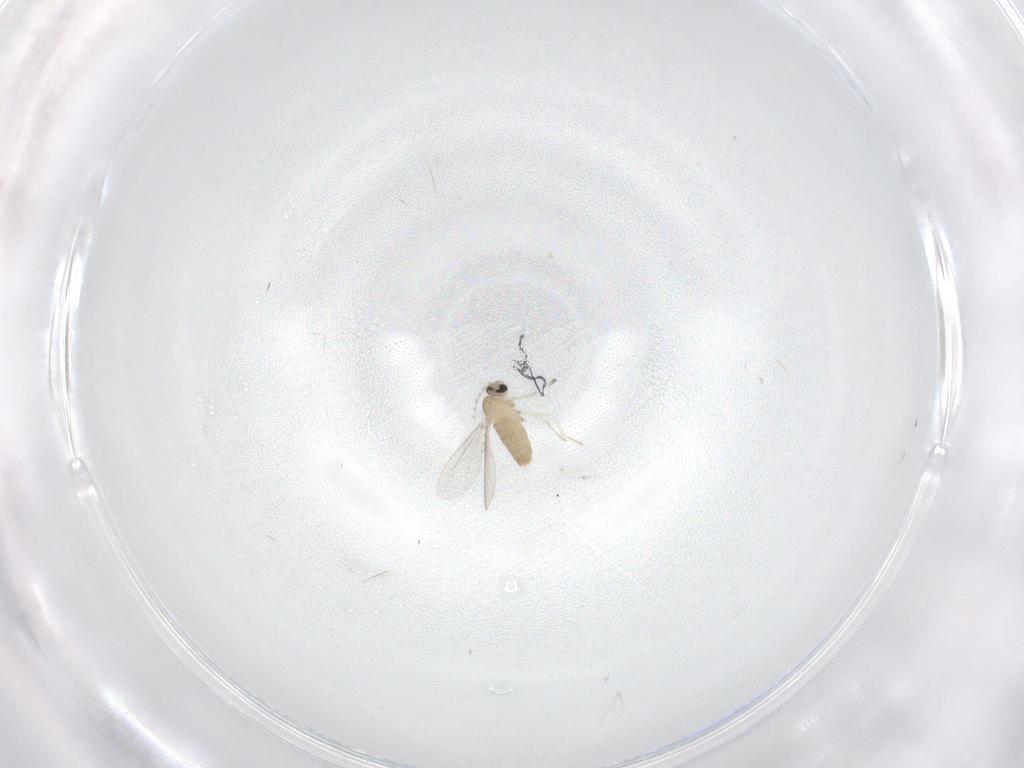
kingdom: Animalia
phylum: Arthropoda
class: Insecta
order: Diptera
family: Cecidomyiidae
